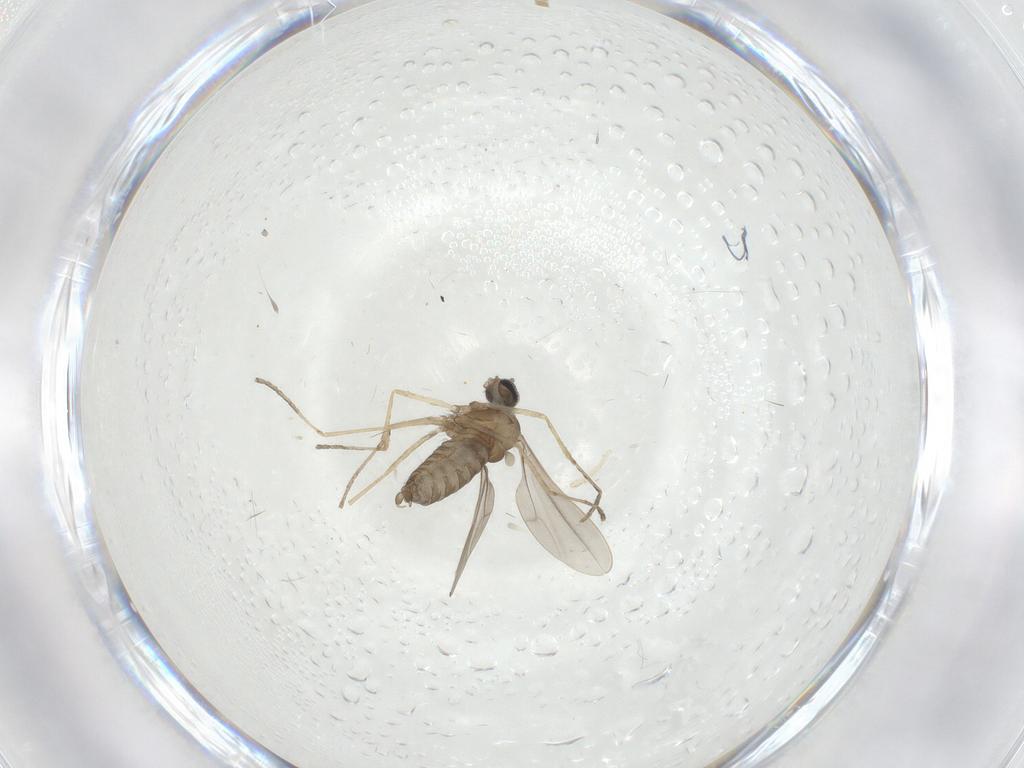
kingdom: Animalia
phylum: Arthropoda
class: Insecta
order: Diptera
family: Cecidomyiidae
